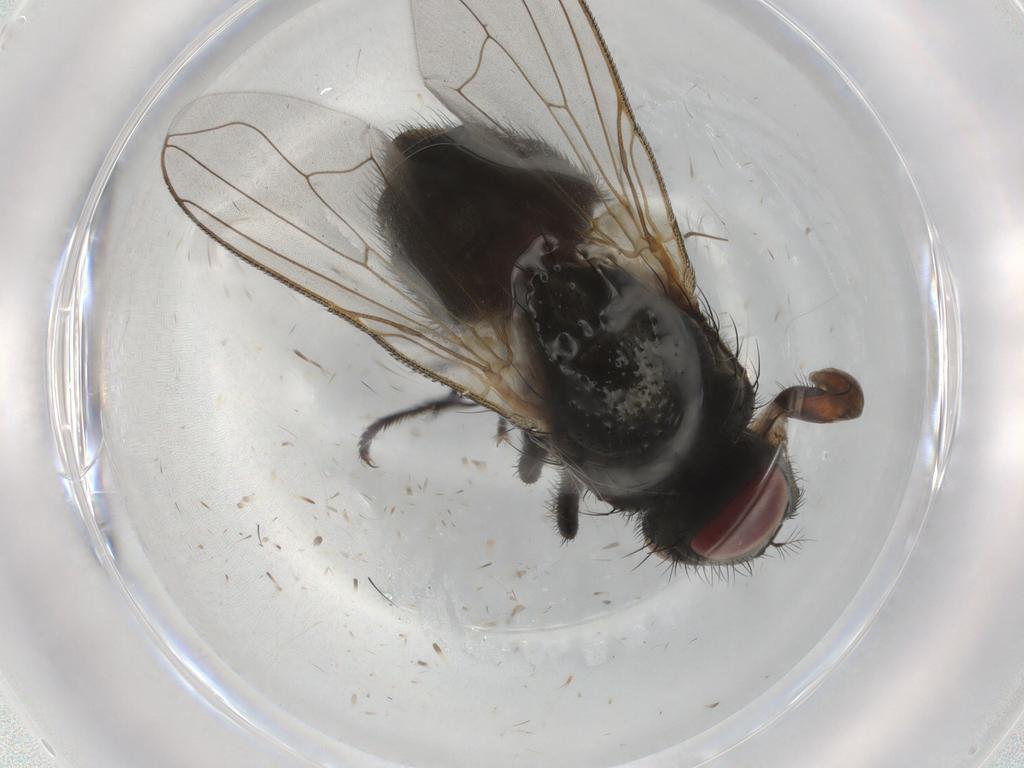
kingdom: Animalia
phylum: Arthropoda
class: Insecta
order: Diptera
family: Muscidae
